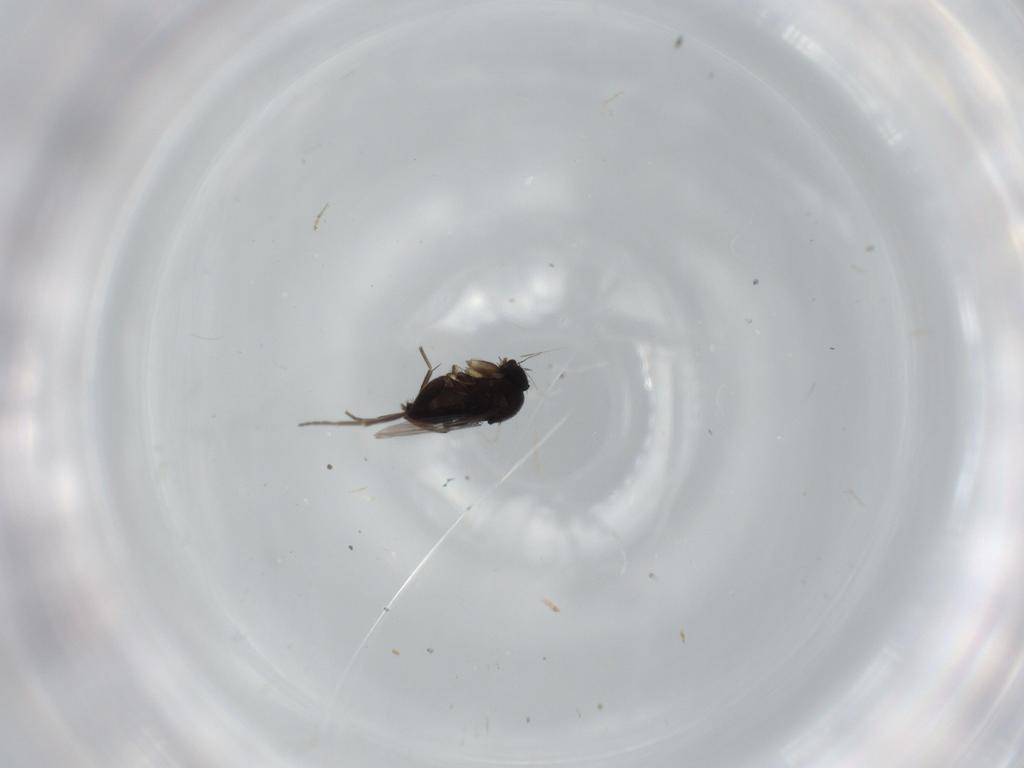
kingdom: Animalia
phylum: Arthropoda
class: Insecta
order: Diptera
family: Phoridae
